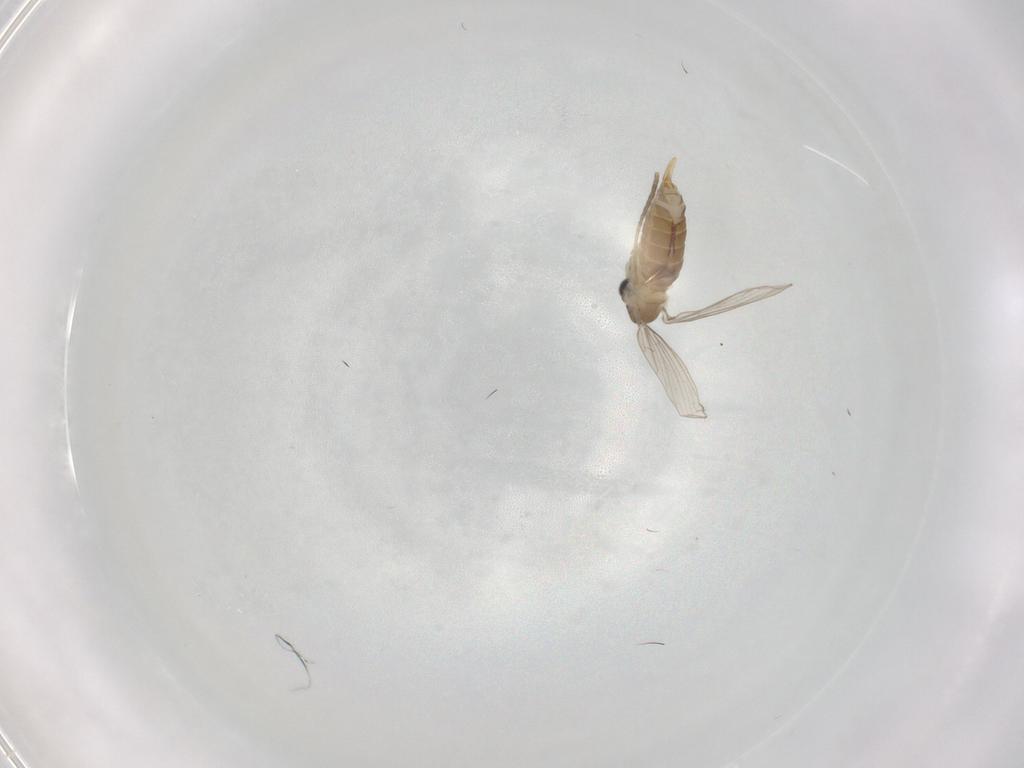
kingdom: Animalia
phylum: Arthropoda
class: Insecta
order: Diptera
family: Psychodidae
